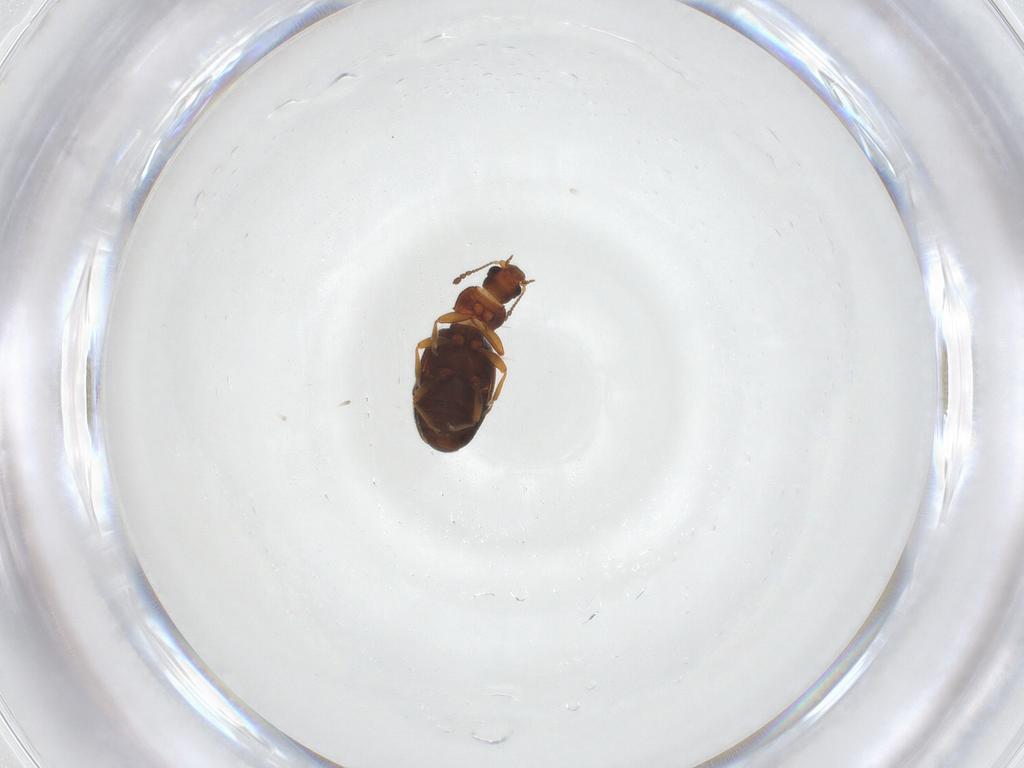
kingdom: Animalia
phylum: Arthropoda
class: Insecta
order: Coleoptera
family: Latridiidae
